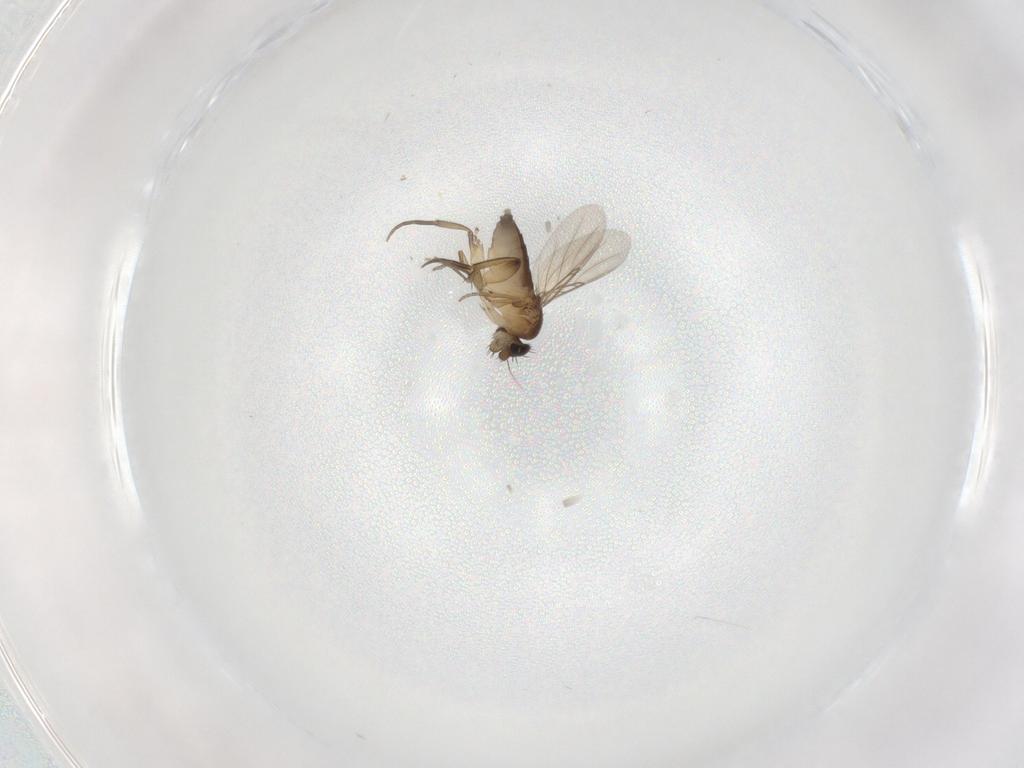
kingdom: Animalia
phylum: Arthropoda
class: Insecta
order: Diptera
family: Phoridae
